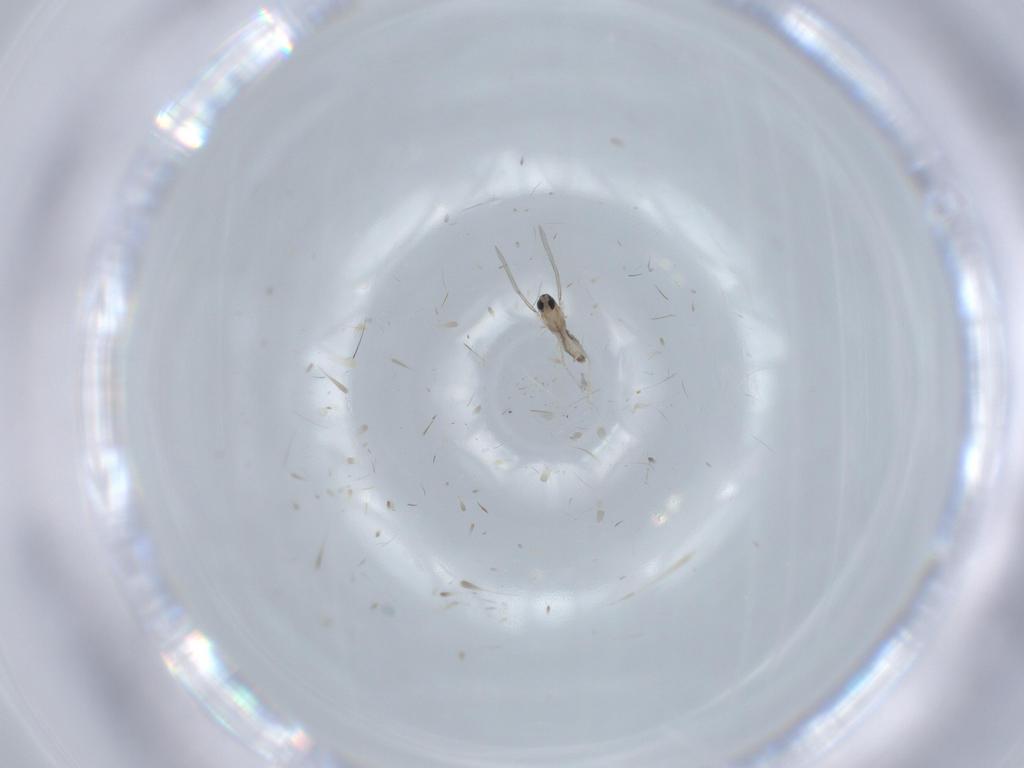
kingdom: Animalia
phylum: Arthropoda
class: Insecta
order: Diptera
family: Cecidomyiidae
